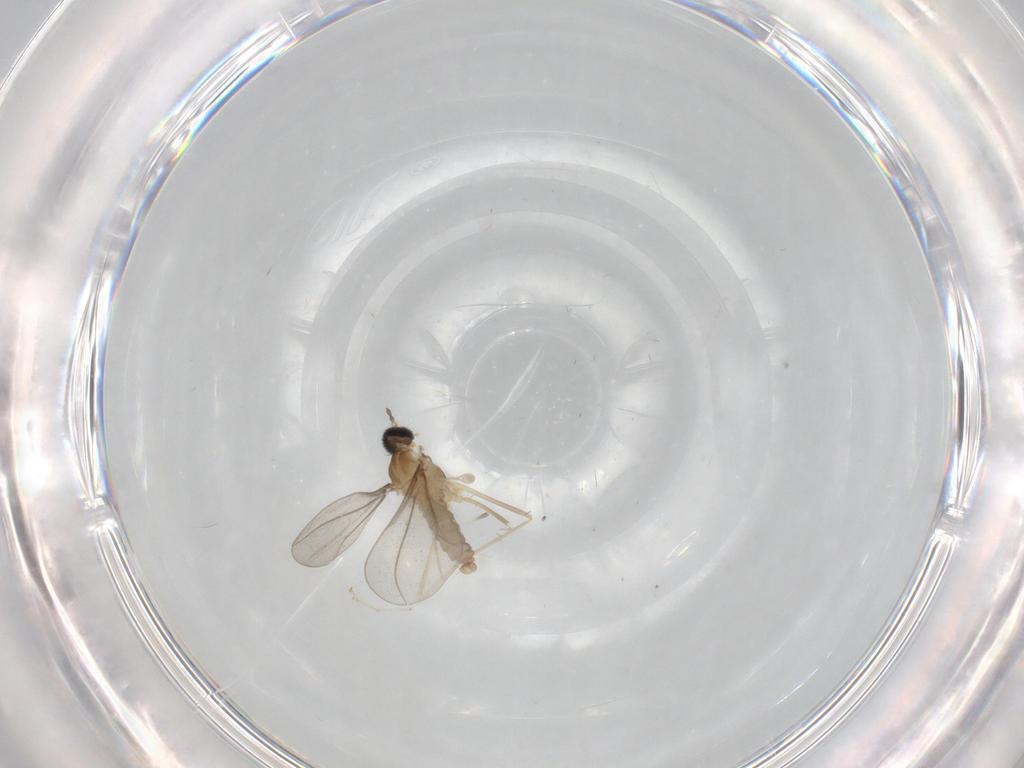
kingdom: Animalia
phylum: Arthropoda
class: Insecta
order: Diptera
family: Cecidomyiidae
